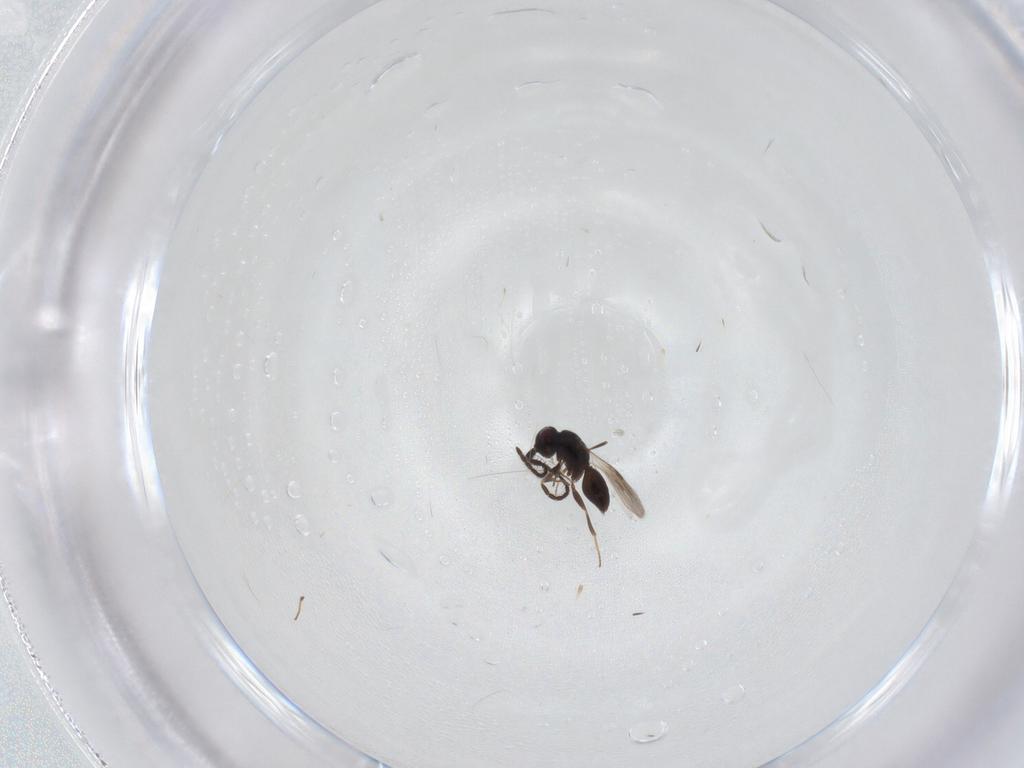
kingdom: Animalia
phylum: Arthropoda
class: Insecta
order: Hymenoptera
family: Megaspilidae
